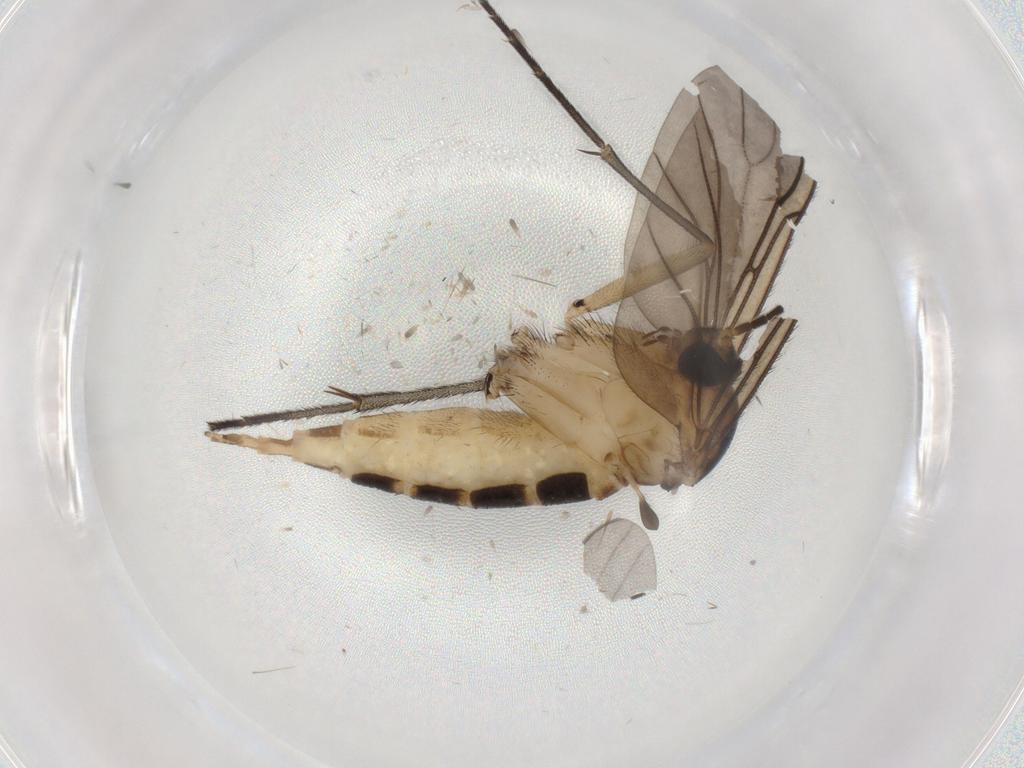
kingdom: Animalia
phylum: Arthropoda
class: Insecta
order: Diptera
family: Sciaridae
